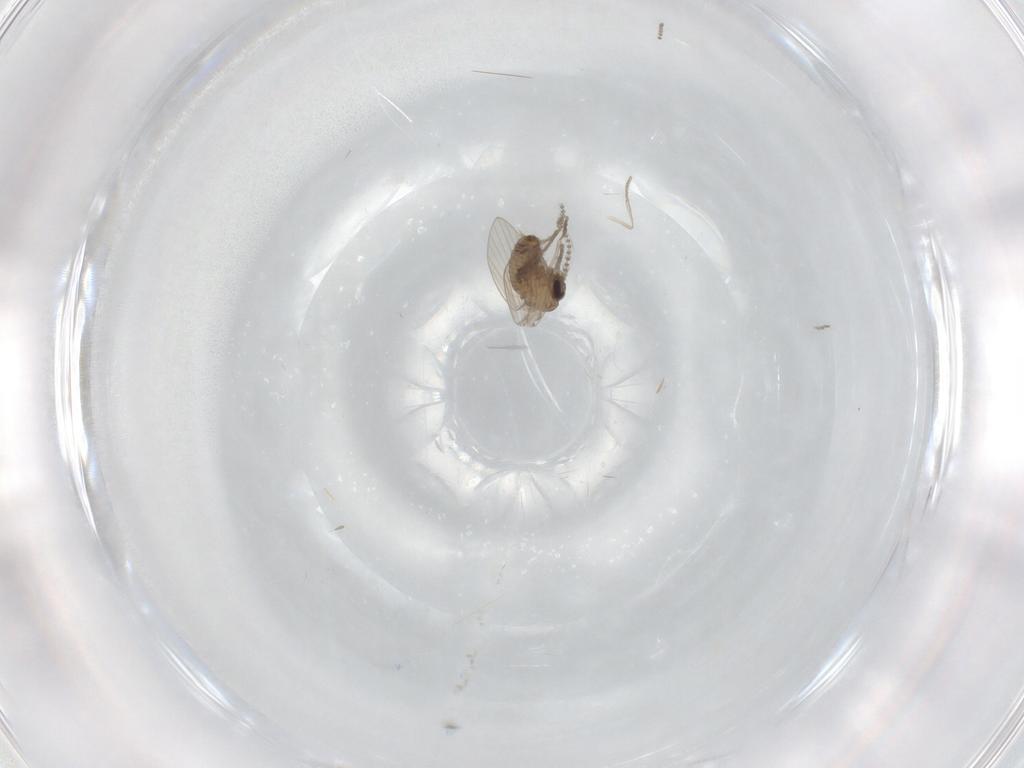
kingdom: Animalia
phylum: Arthropoda
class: Insecta
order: Diptera
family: Psychodidae
